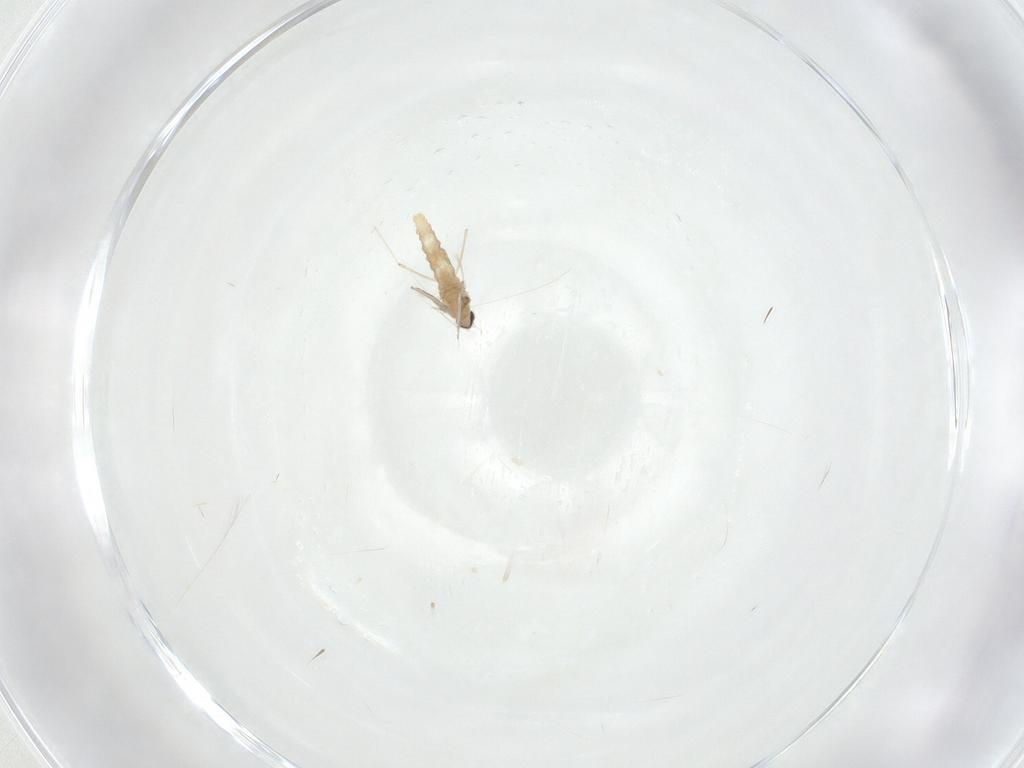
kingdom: Animalia
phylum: Arthropoda
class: Insecta
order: Diptera
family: Cecidomyiidae
